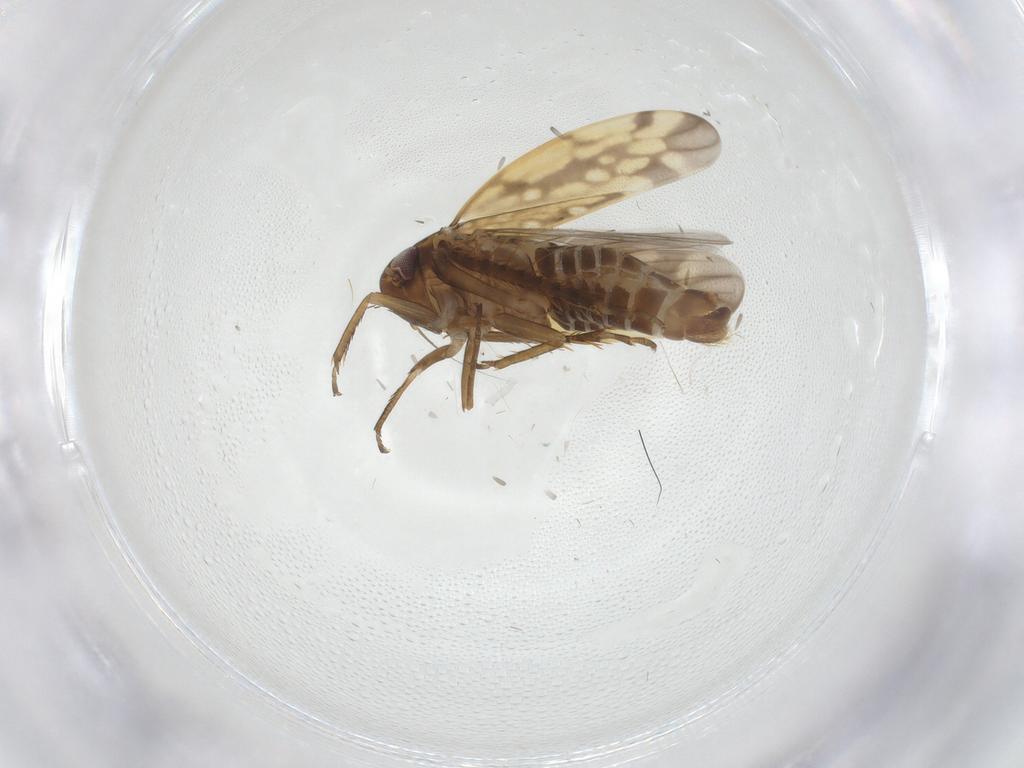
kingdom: Animalia
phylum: Arthropoda
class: Insecta
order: Hemiptera
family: Cicadellidae
